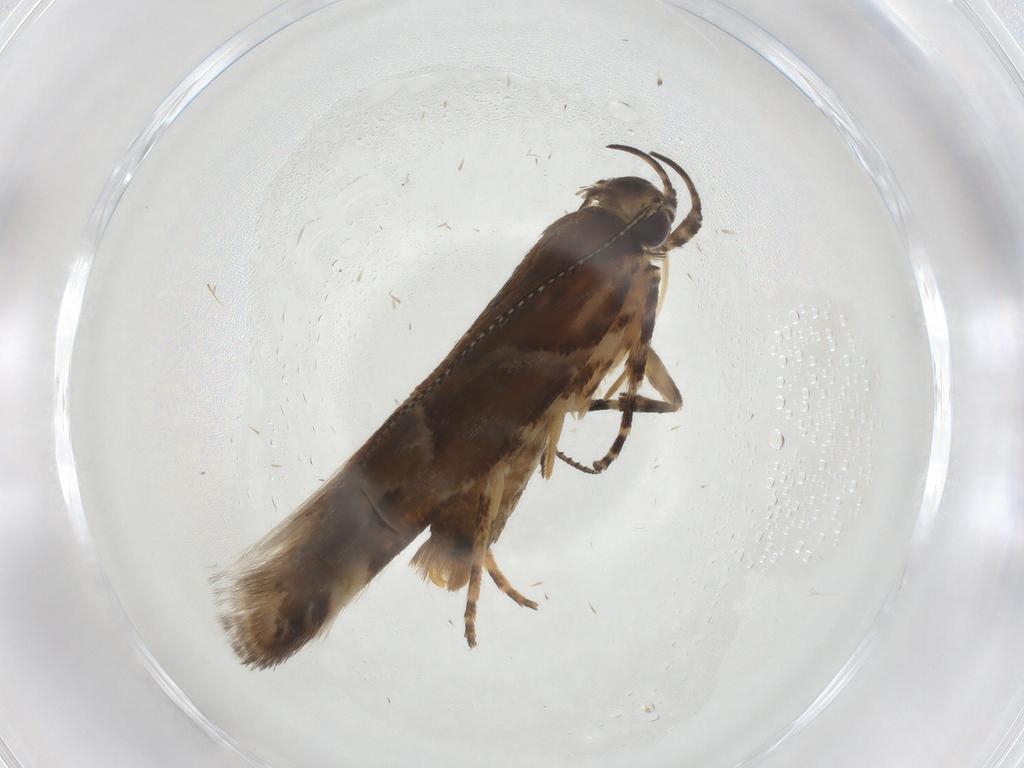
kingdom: Animalia
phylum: Arthropoda
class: Insecta
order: Lepidoptera
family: Gelechiidae
